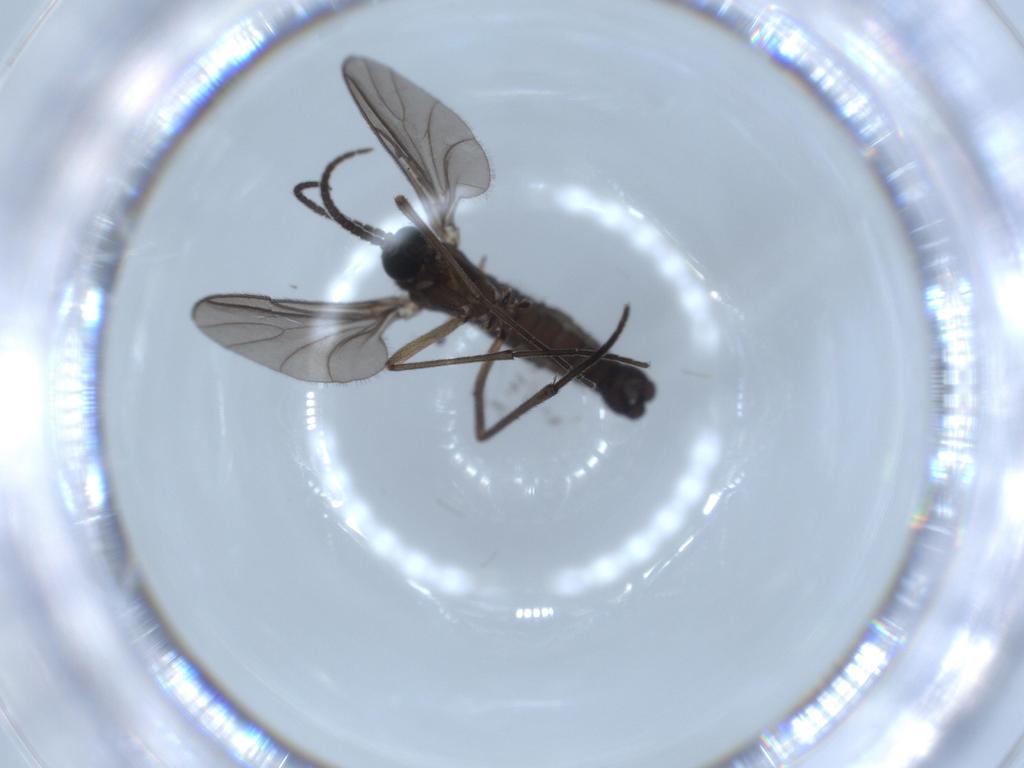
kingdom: Animalia
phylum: Arthropoda
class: Insecta
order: Diptera
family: Sciaridae
